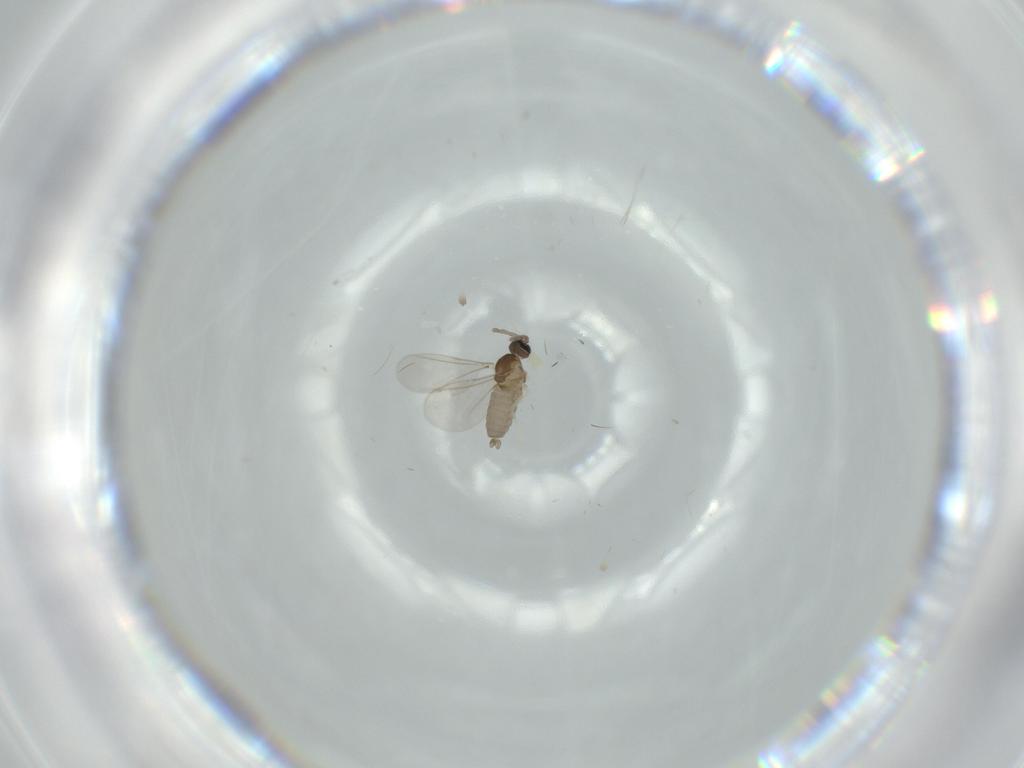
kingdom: Animalia
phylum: Arthropoda
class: Insecta
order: Diptera
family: Cecidomyiidae
